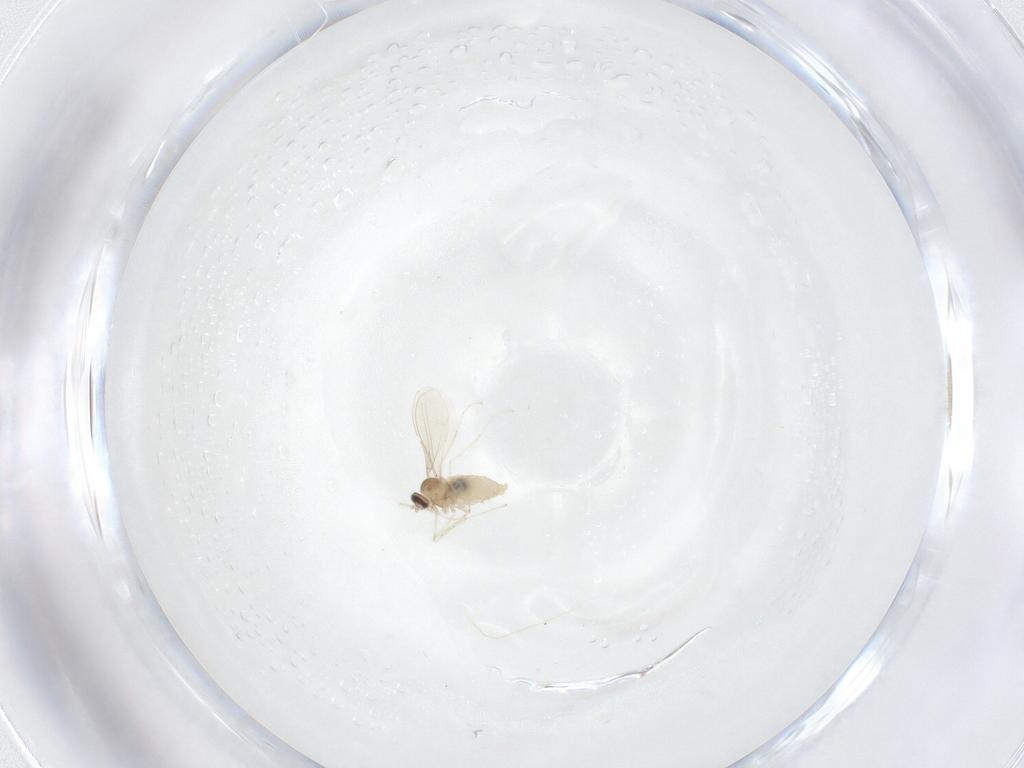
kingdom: Animalia
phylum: Arthropoda
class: Insecta
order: Diptera
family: Cecidomyiidae
